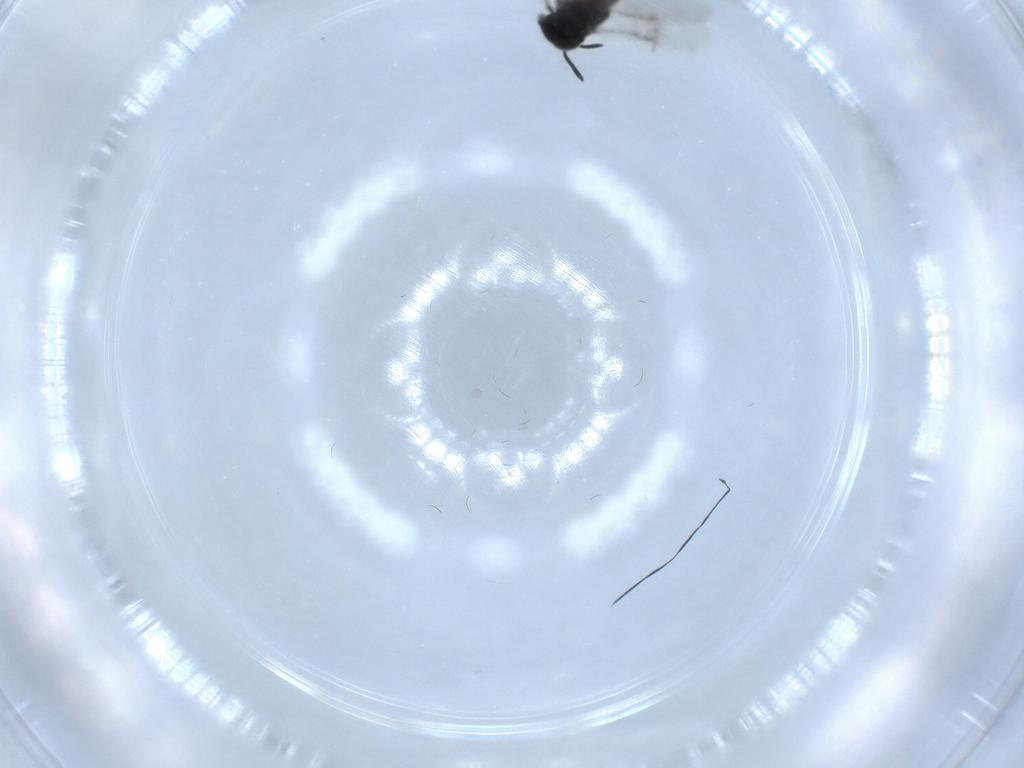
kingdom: Animalia
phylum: Arthropoda
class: Insecta
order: Hymenoptera
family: Encyrtidae
